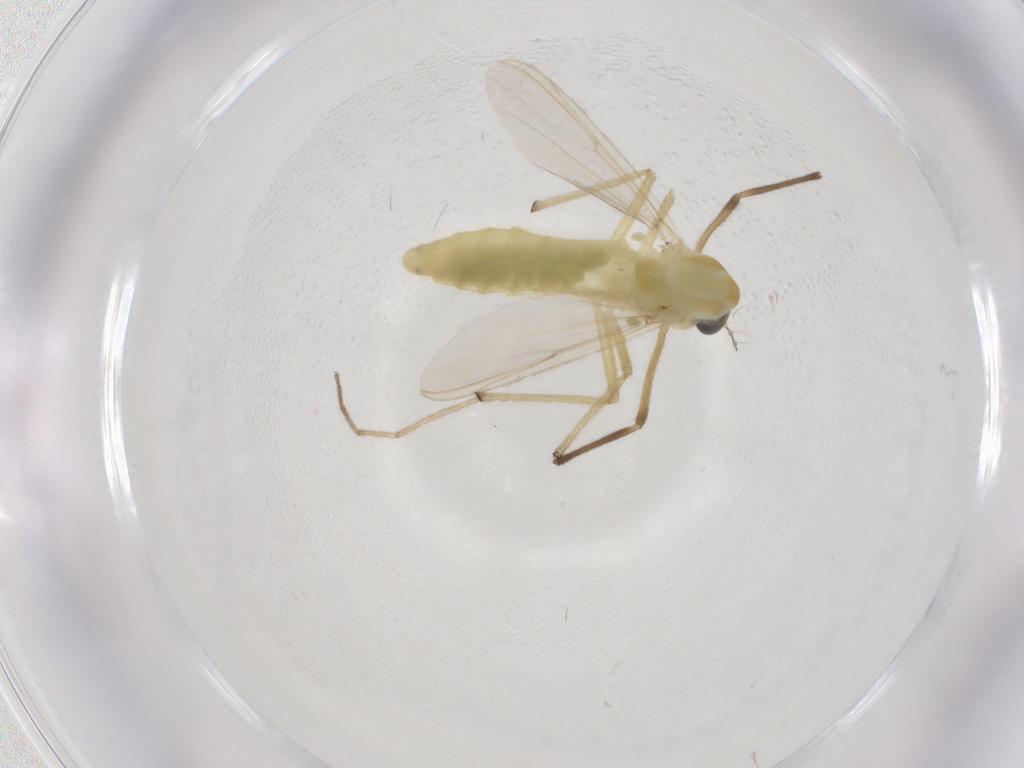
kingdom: Animalia
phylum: Arthropoda
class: Insecta
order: Diptera
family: Chironomidae
